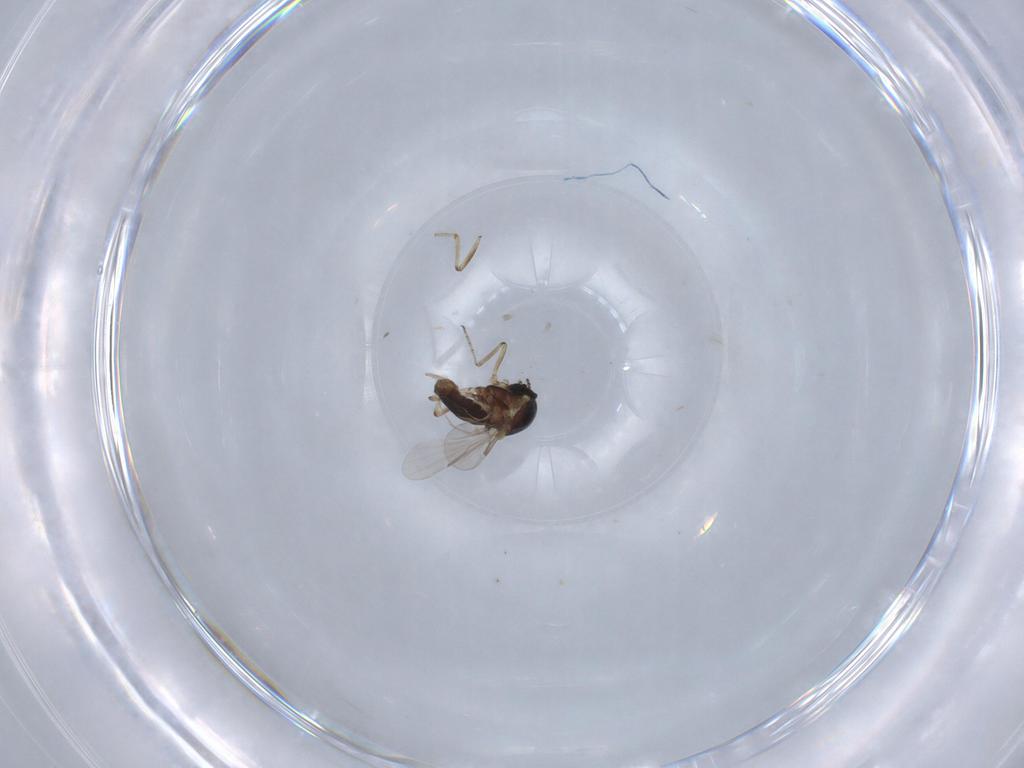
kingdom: Animalia
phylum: Arthropoda
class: Insecta
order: Diptera
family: Ceratopogonidae
